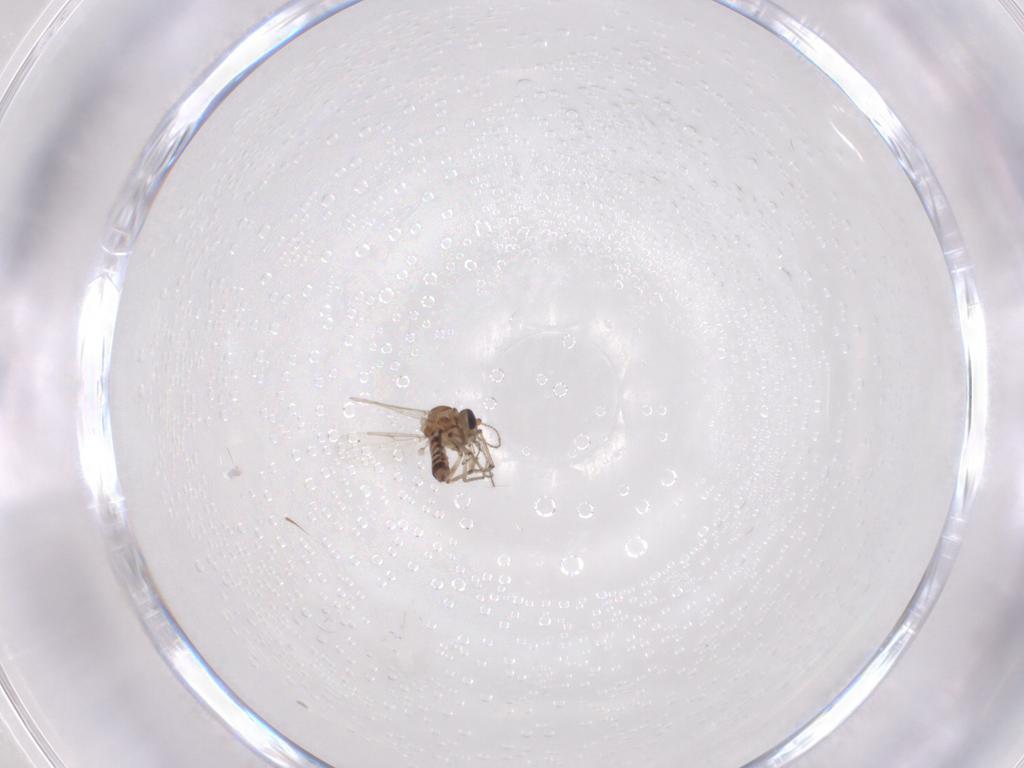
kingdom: Animalia
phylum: Arthropoda
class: Insecta
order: Diptera
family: Ceratopogonidae
